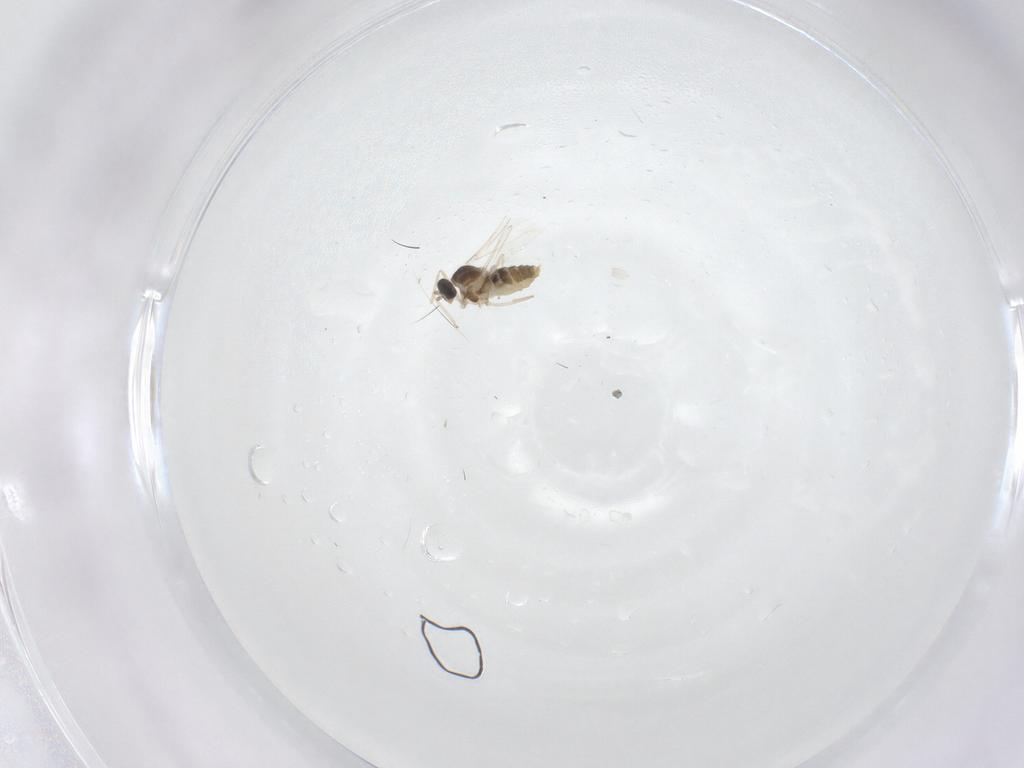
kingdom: Animalia
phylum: Arthropoda
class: Insecta
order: Diptera
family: Cecidomyiidae
